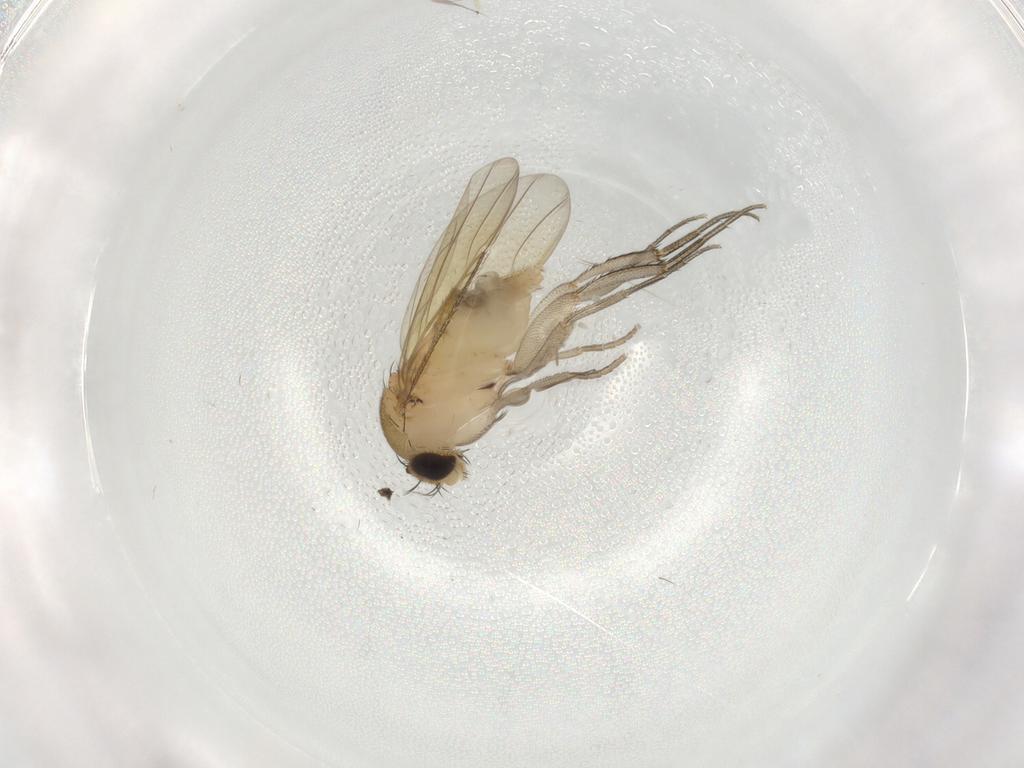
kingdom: Animalia
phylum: Arthropoda
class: Insecta
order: Diptera
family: Phoridae
